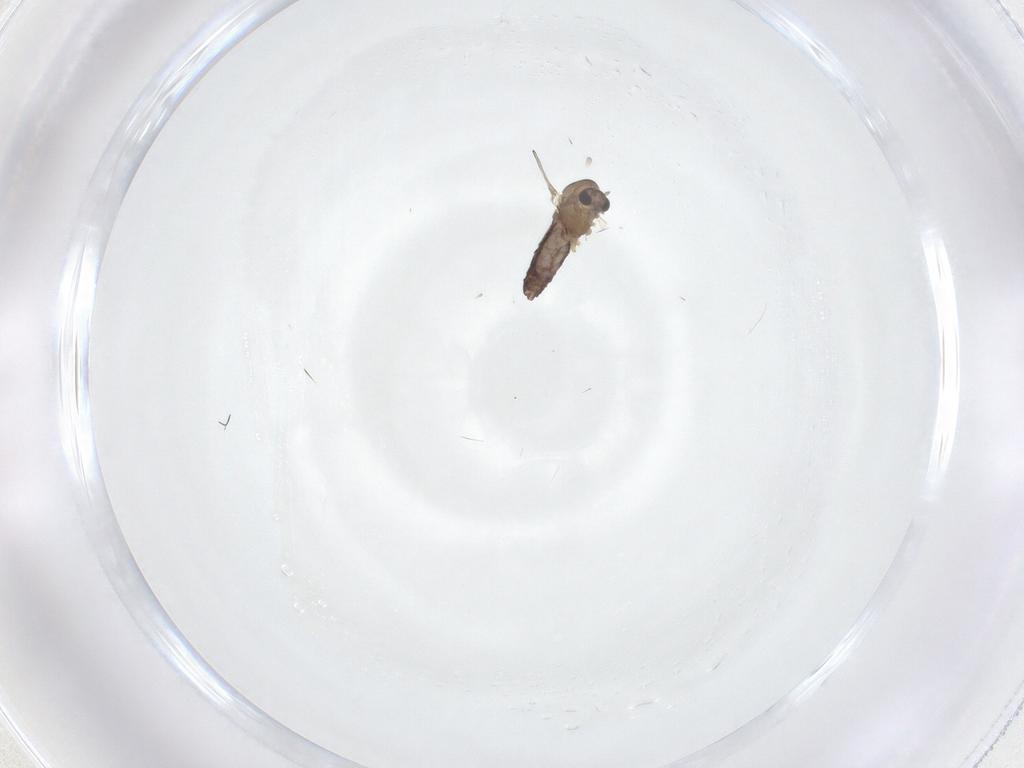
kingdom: Animalia
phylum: Arthropoda
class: Insecta
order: Diptera
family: Chironomidae
